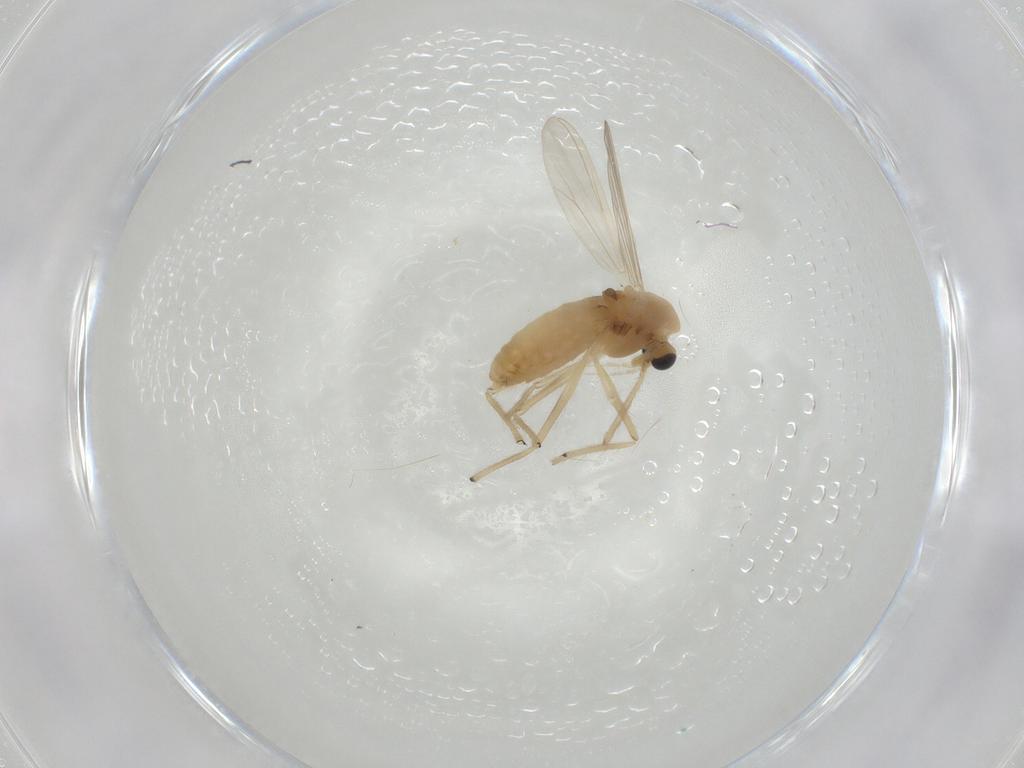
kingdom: Animalia
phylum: Arthropoda
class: Insecta
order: Diptera
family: Chironomidae
